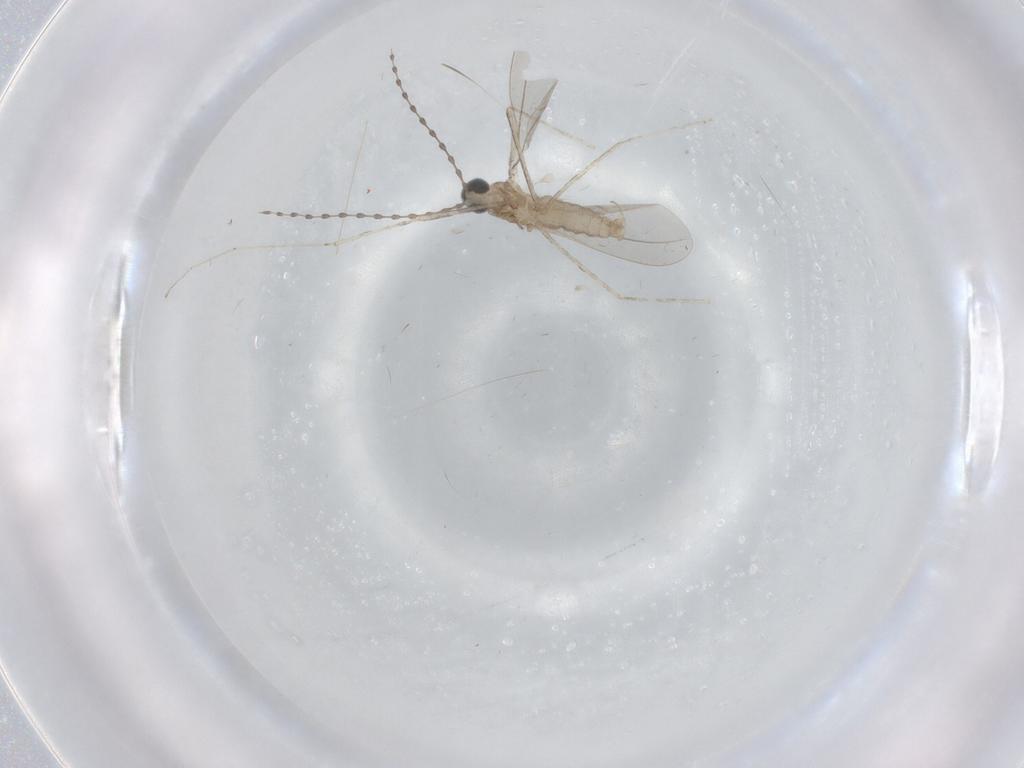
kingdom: Animalia
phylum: Arthropoda
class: Insecta
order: Diptera
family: Cecidomyiidae
